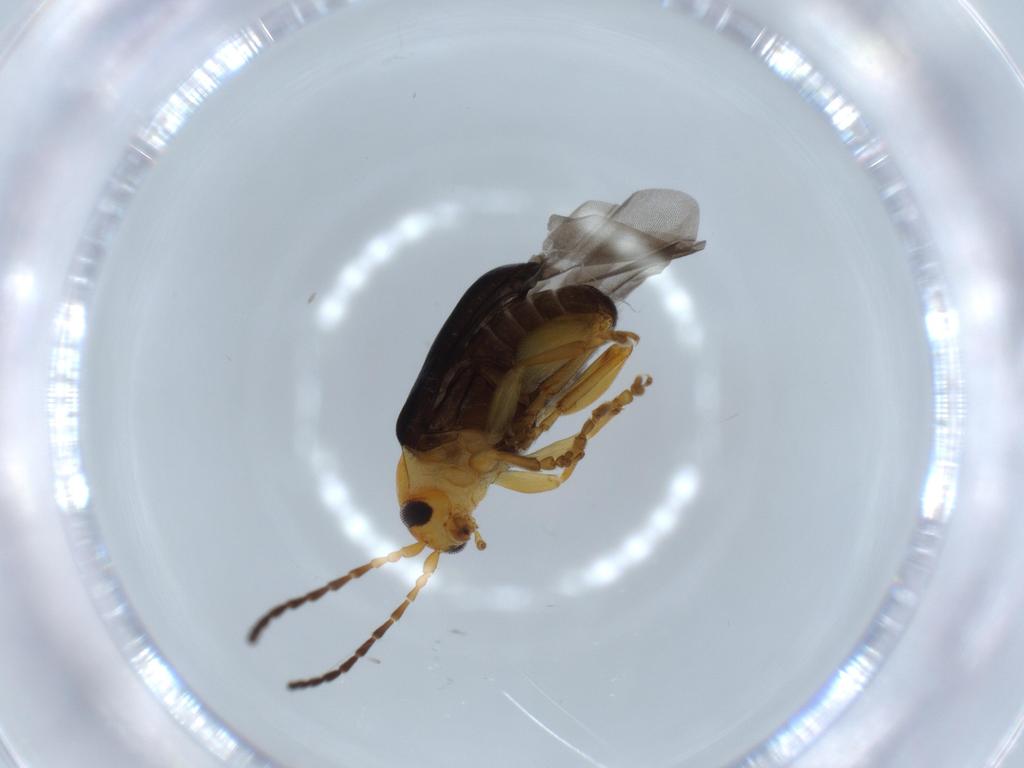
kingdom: Animalia
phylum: Arthropoda
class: Insecta
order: Coleoptera
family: Chrysomelidae
